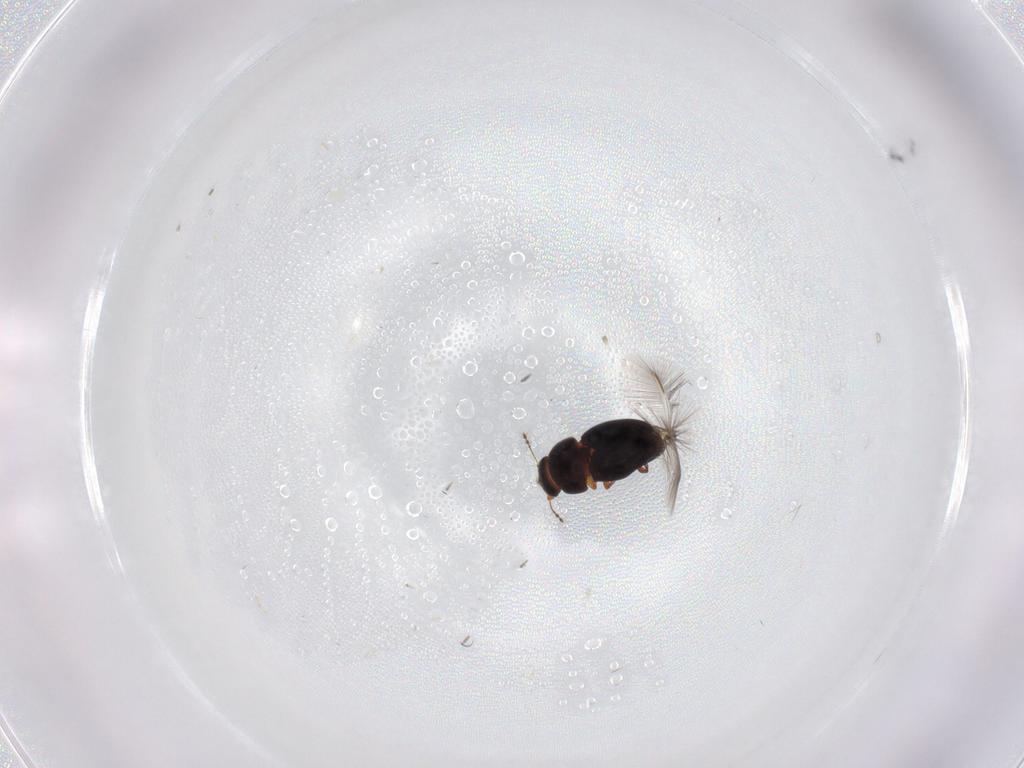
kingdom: Animalia
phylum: Arthropoda
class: Insecta
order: Coleoptera
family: Ptiliidae
